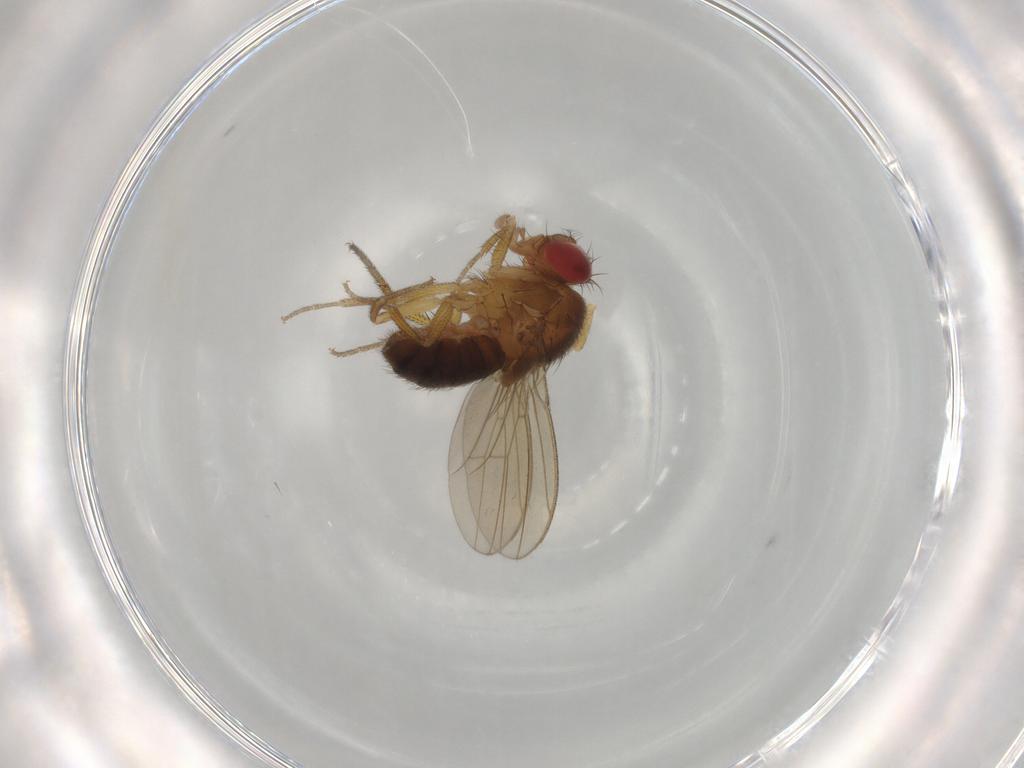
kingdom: Animalia
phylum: Arthropoda
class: Insecta
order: Diptera
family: Drosophilidae
